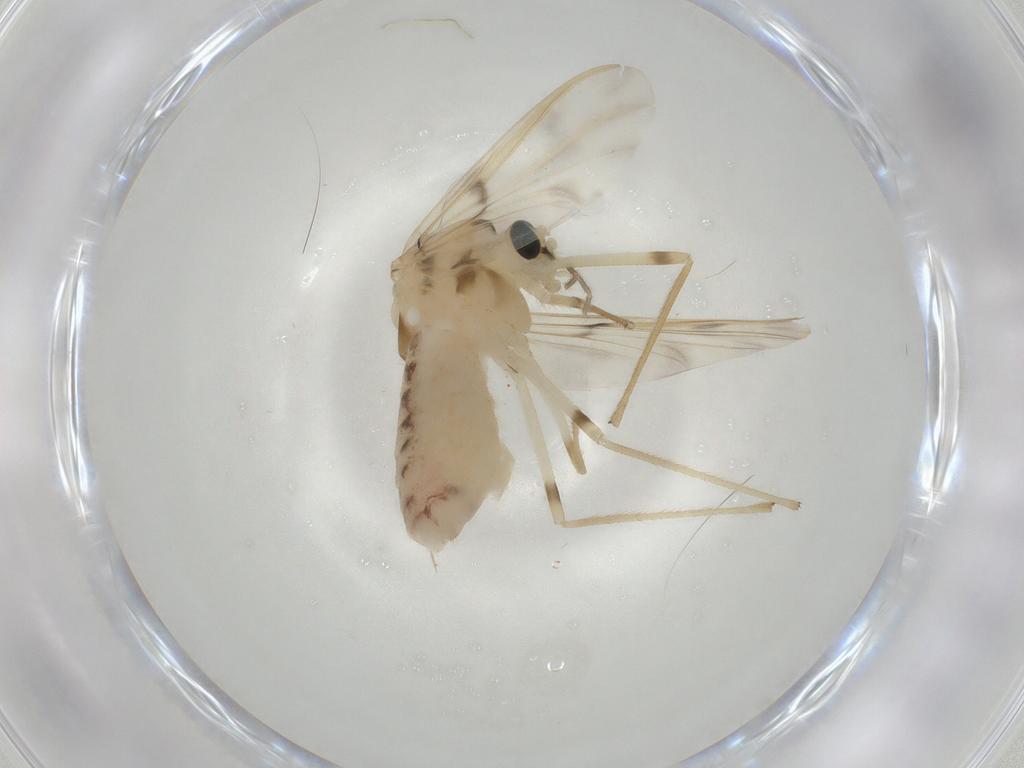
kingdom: Animalia
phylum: Arthropoda
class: Insecta
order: Diptera
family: Chironomidae
